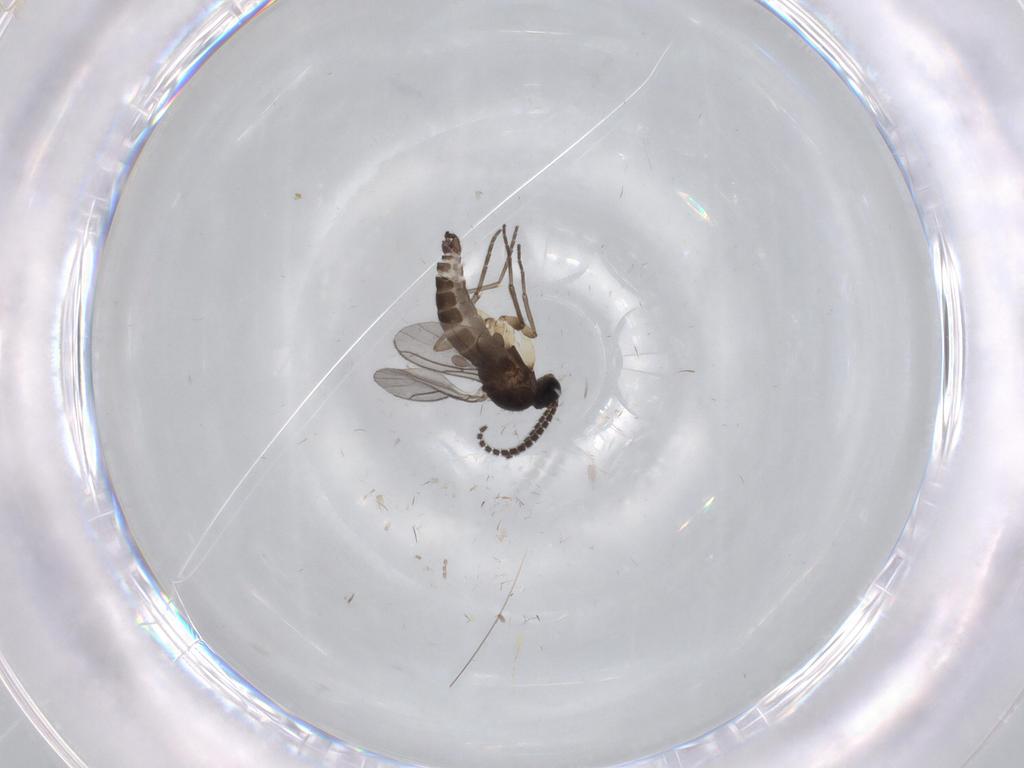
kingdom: Animalia
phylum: Arthropoda
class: Insecta
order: Diptera
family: Sciaridae
